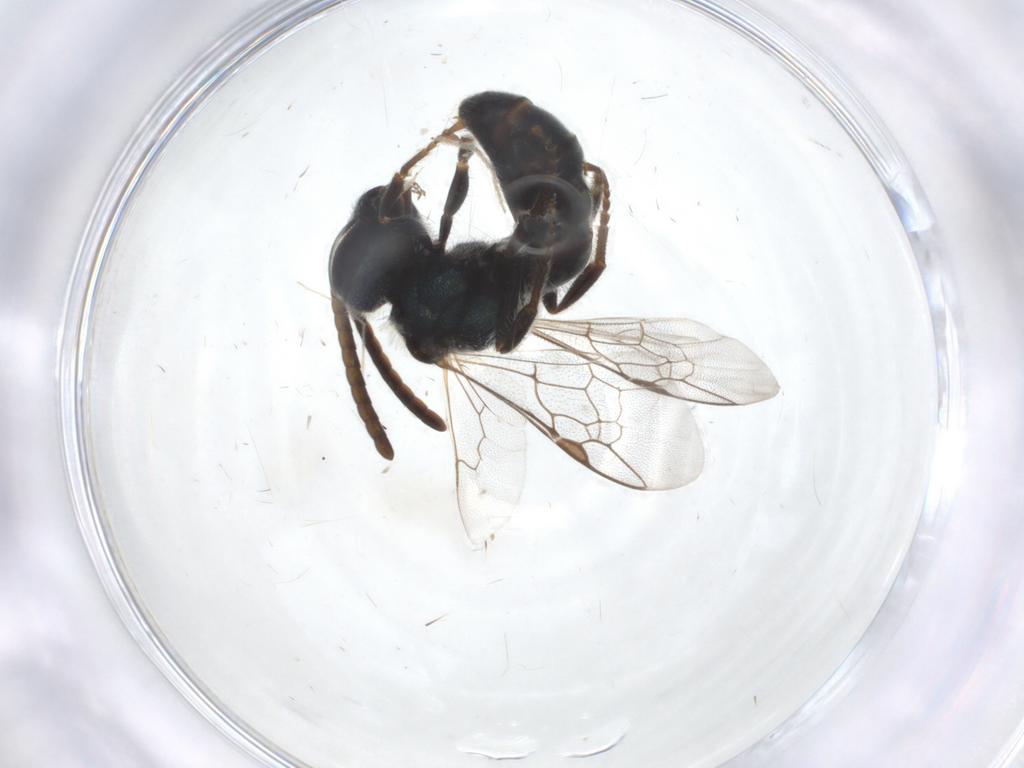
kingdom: Animalia
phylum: Arthropoda
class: Insecta
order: Hymenoptera
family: Halictidae
